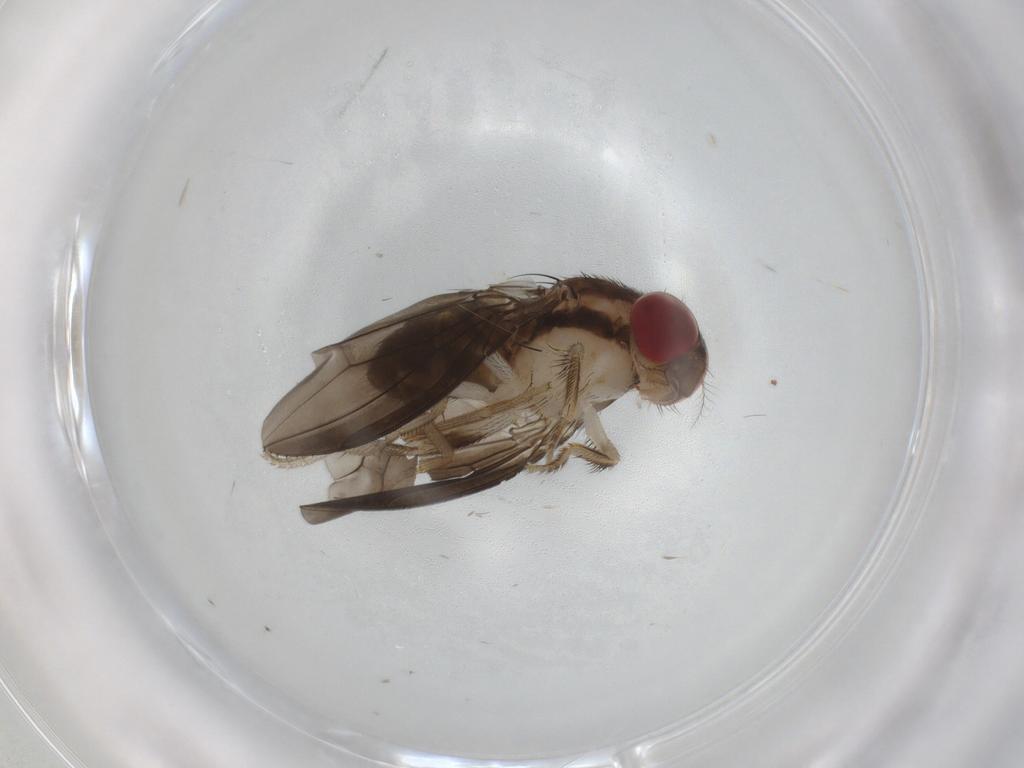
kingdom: Animalia
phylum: Arthropoda
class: Insecta
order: Diptera
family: Drosophilidae
